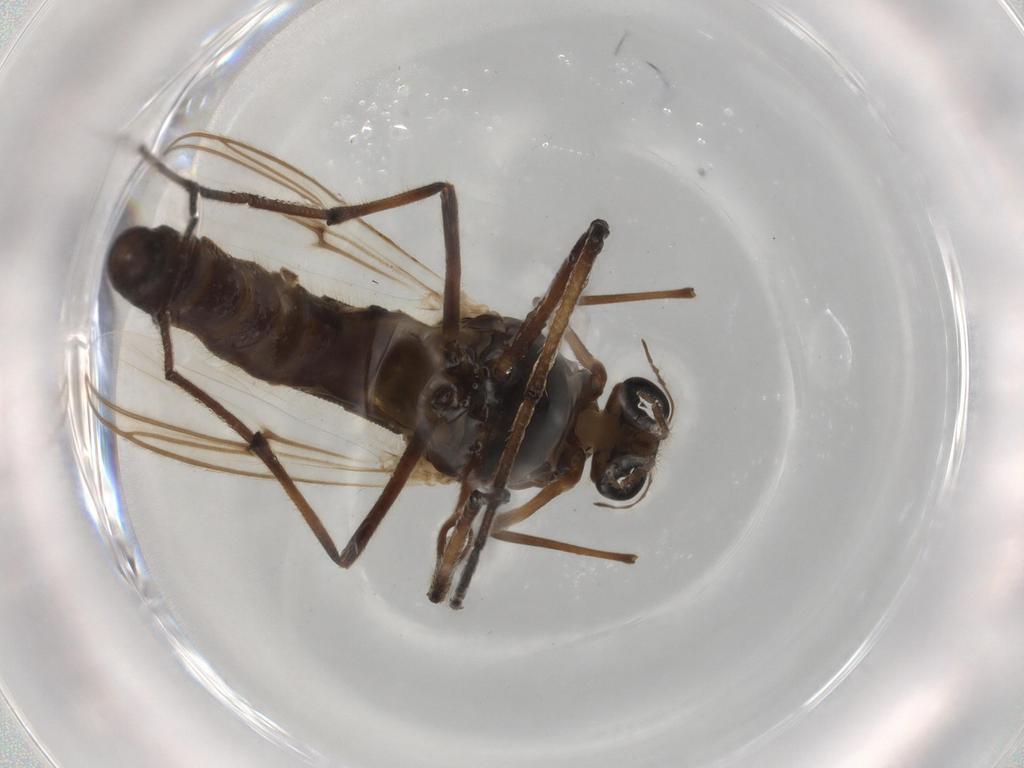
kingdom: Animalia
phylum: Arthropoda
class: Insecta
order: Diptera
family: Chironomidae
